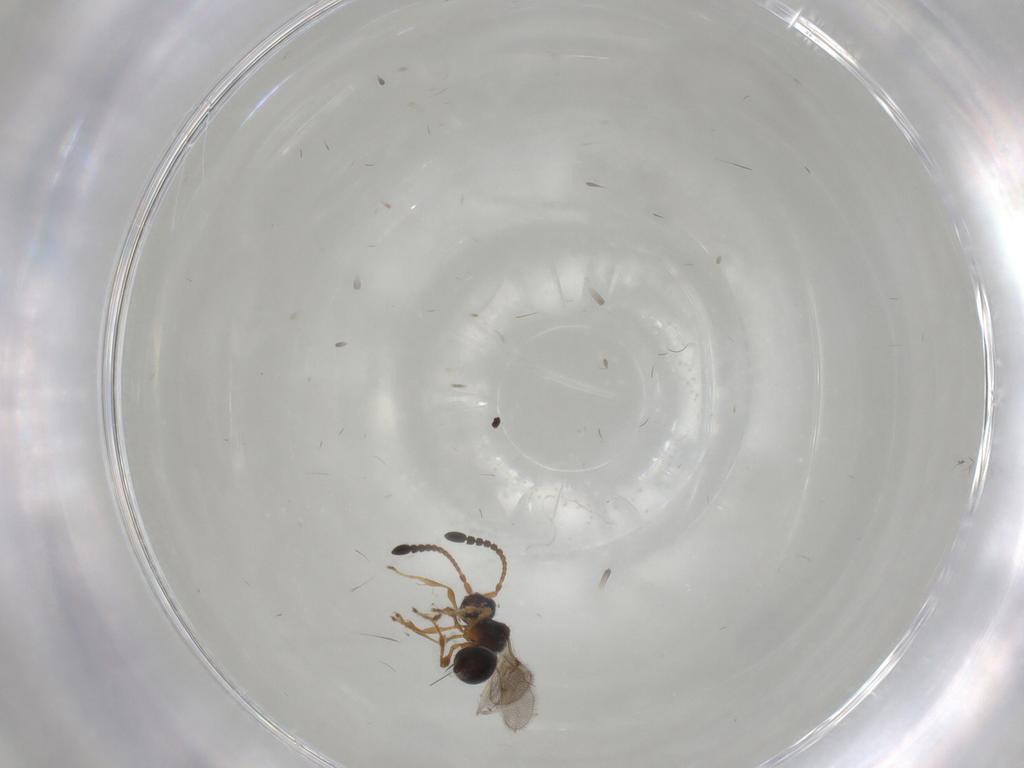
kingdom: Animalia
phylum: Arthropoda
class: Insecta
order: Hymenoptera
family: Diapriidae
